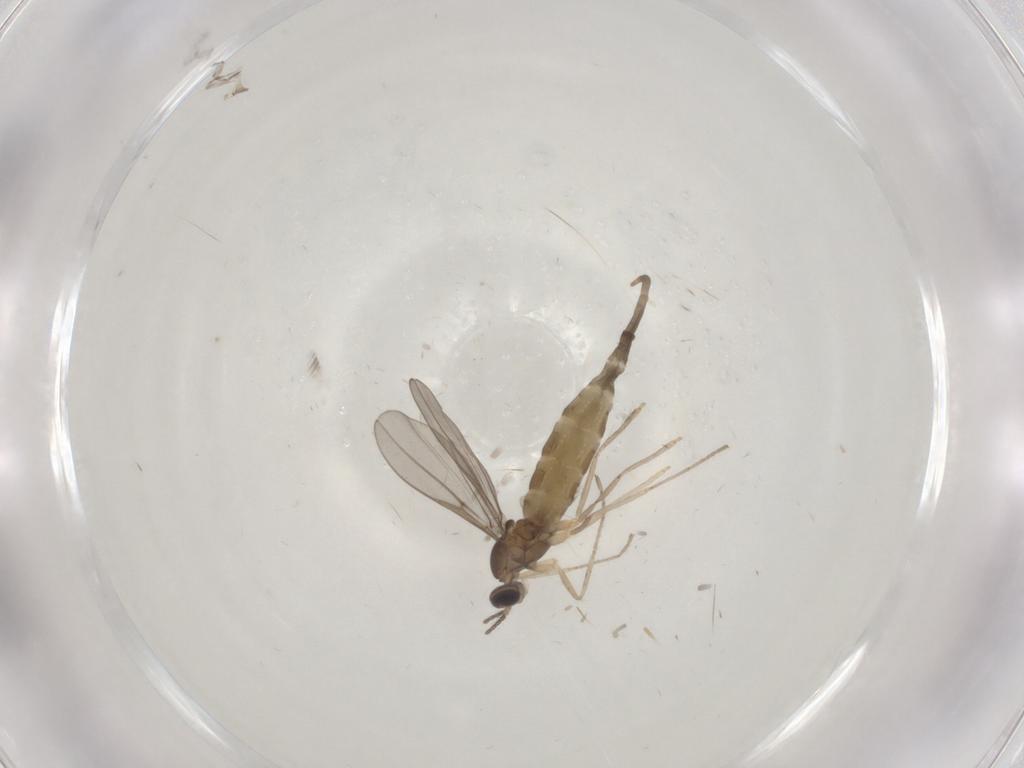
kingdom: Animalia
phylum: Arthropoda
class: Insecta
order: Diptera
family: Cecidomyiidae
